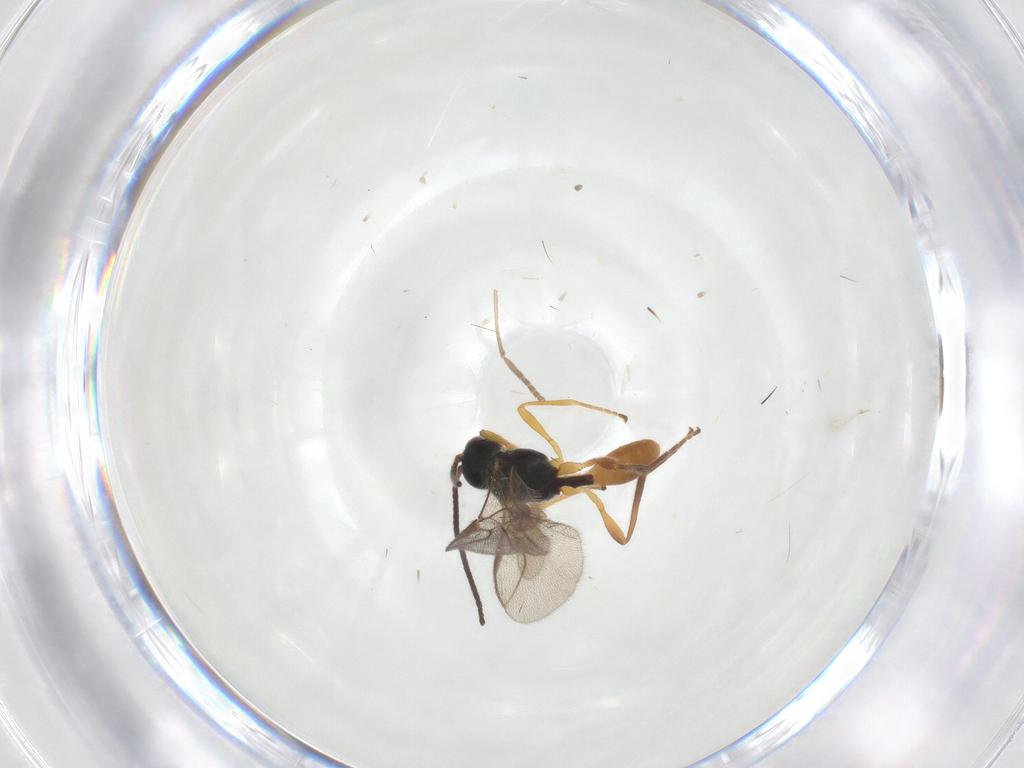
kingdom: Animalia
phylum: Arthropoda
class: Insecta
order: Hymenoptera
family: Braconidae
